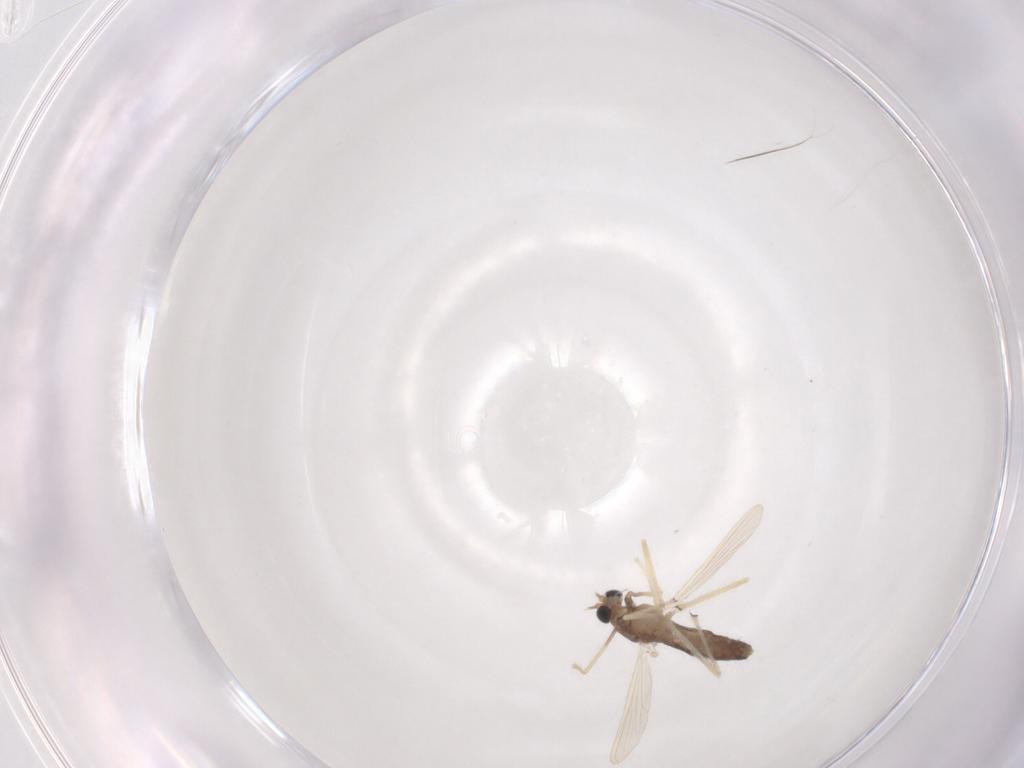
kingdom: Animalia
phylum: Arthropoda
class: Insecta
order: Diptera
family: Chironomidae
